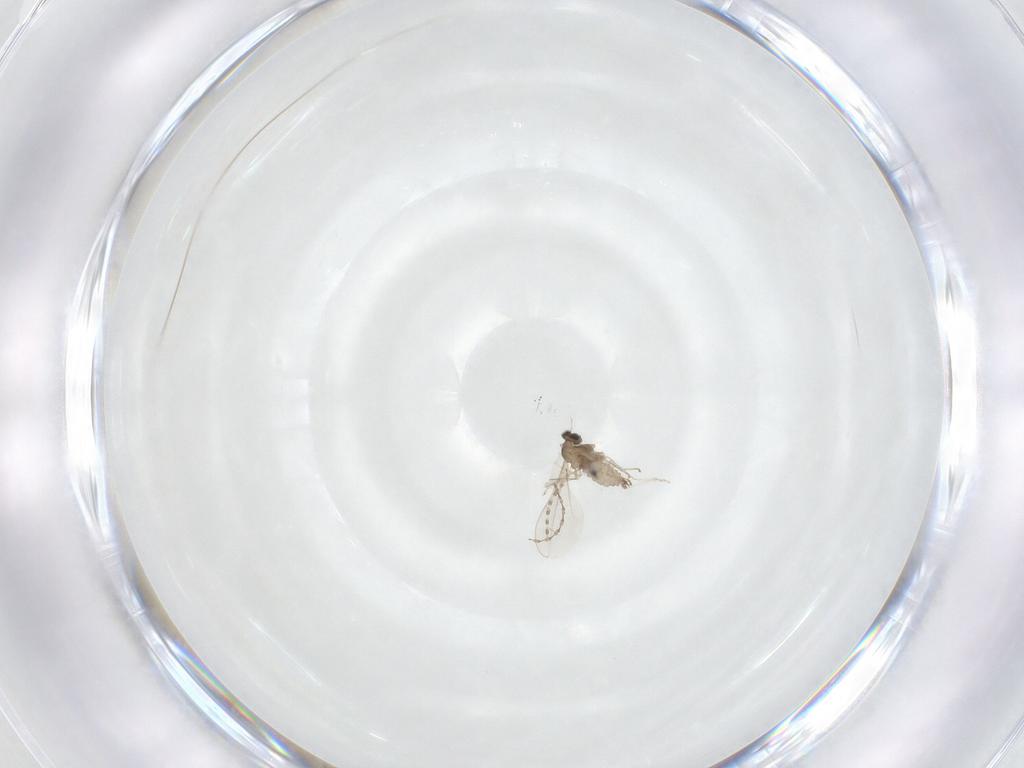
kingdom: Animalia
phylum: Arthropoda
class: Insecta
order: Diptera
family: Cecidomyiidae
